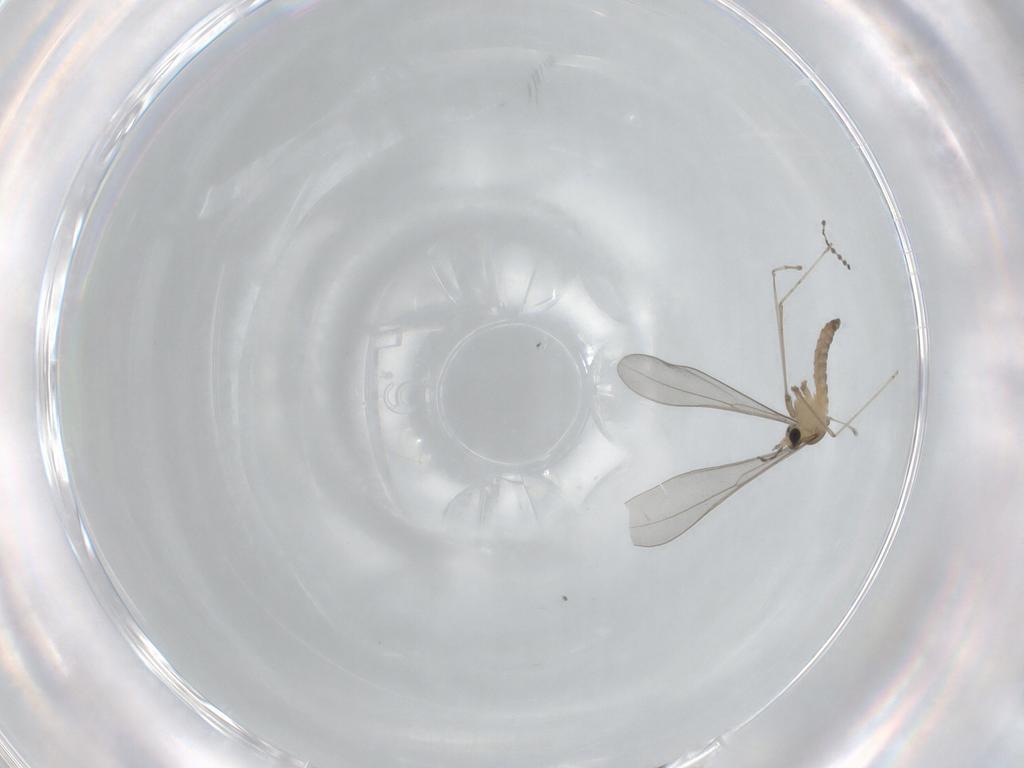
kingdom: Animalia
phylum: Arthropoda
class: Insecta
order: Diptera
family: Cecidomyiidae
